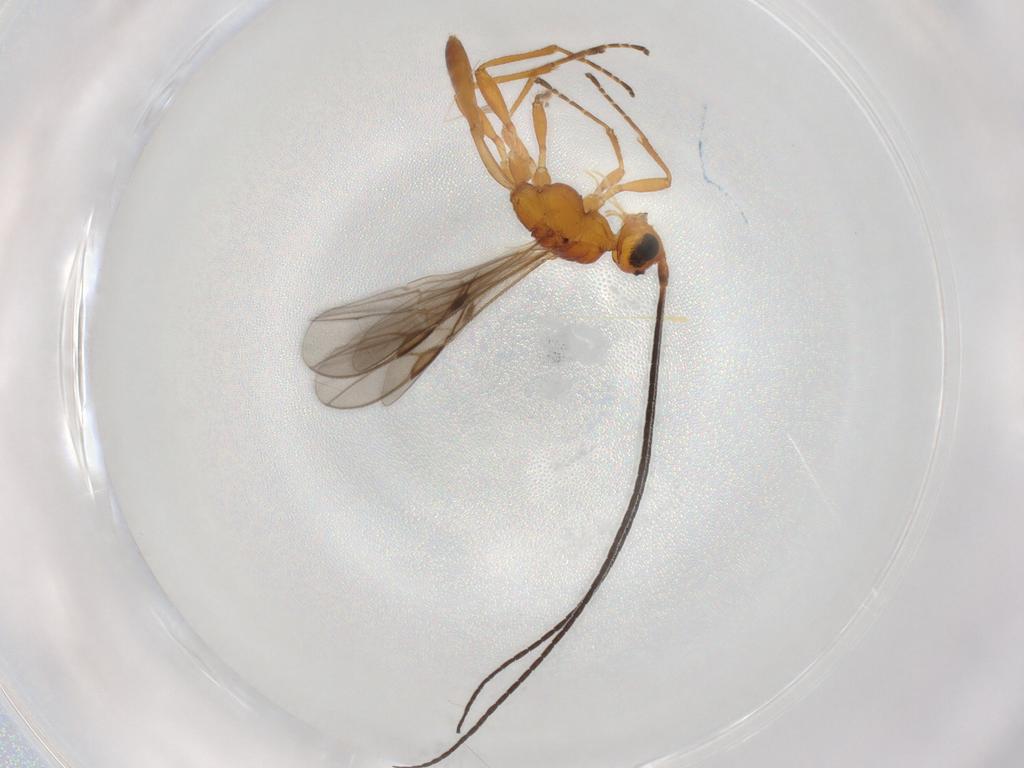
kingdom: Animalia
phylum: Arthropoda
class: Insecta
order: Hymenoptera
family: Braconidae
